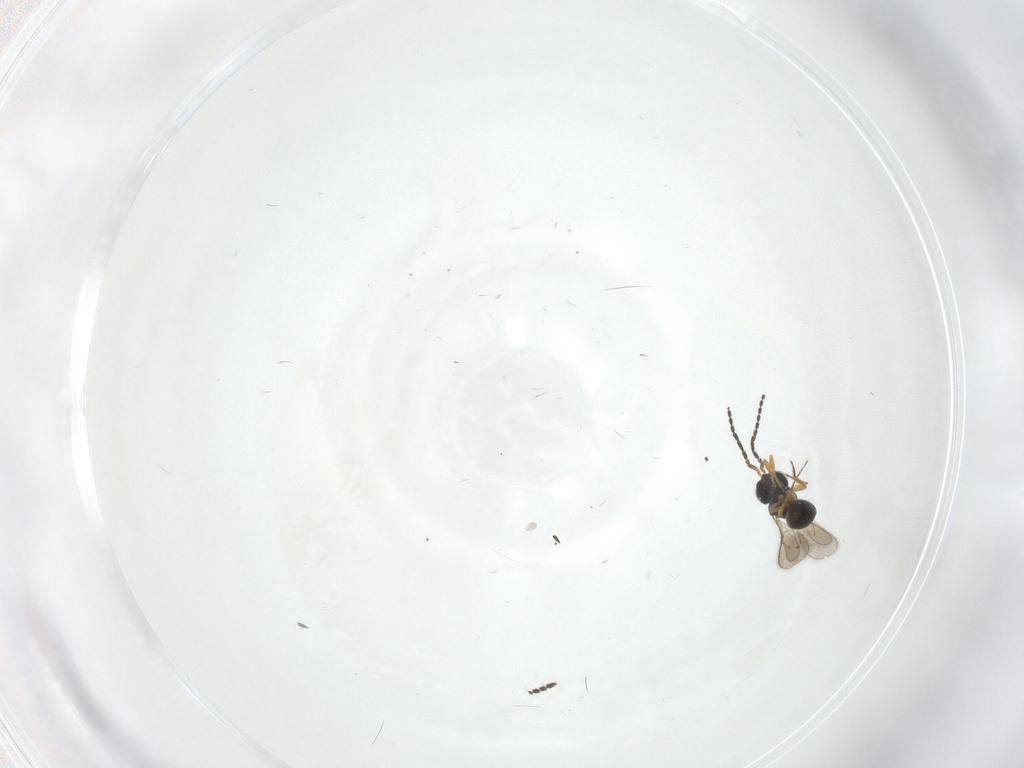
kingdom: Animalia
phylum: Arthropoda
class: Insecta
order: Hymenoptera
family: Scelionidae
